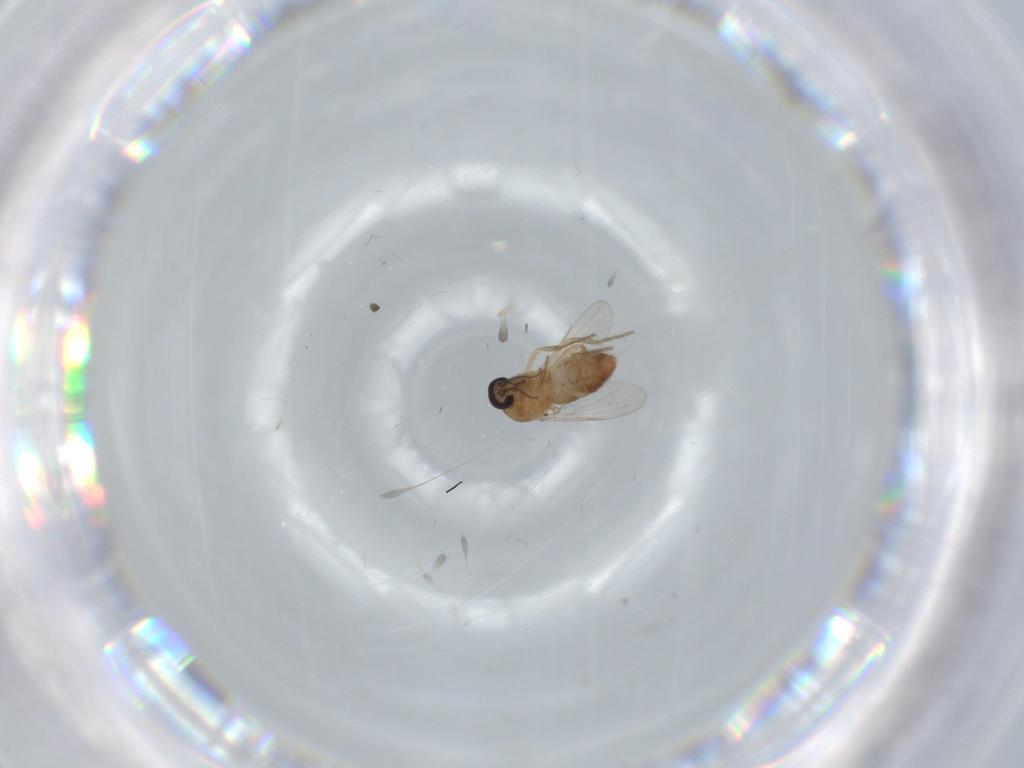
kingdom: Animalia
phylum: Arthropoda
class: Insecta
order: Diptera
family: Ceratopogonidae
